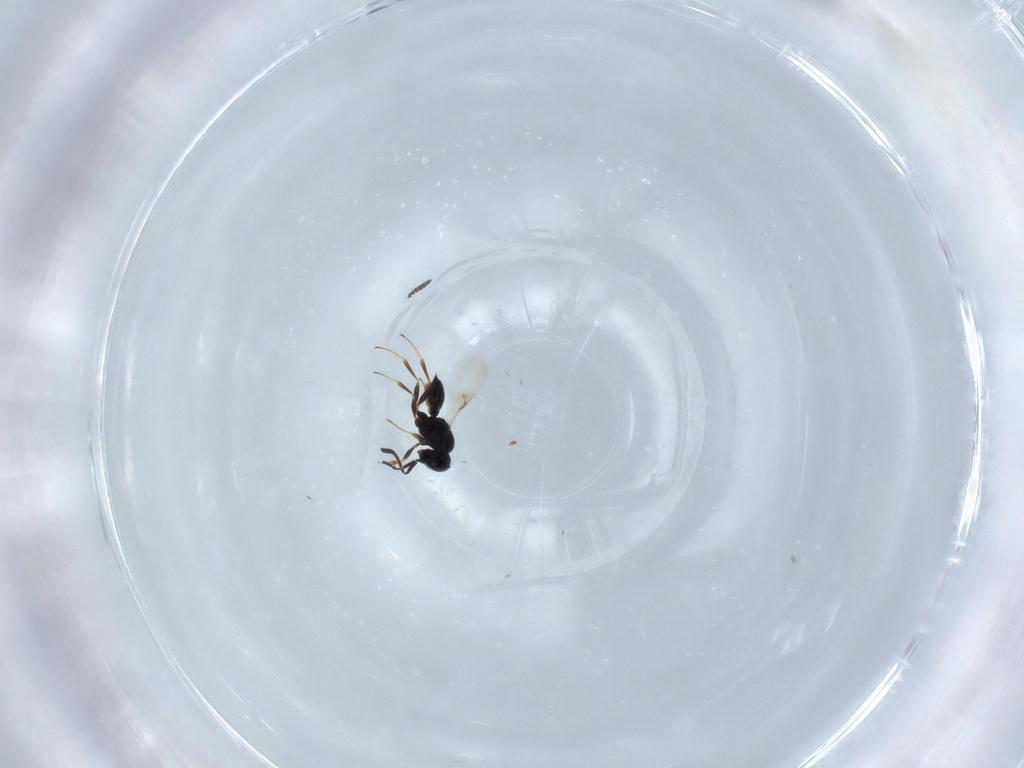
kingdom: Animalia
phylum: Arthropoda
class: Insecta
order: Hymenoptera
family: Scelionidae
